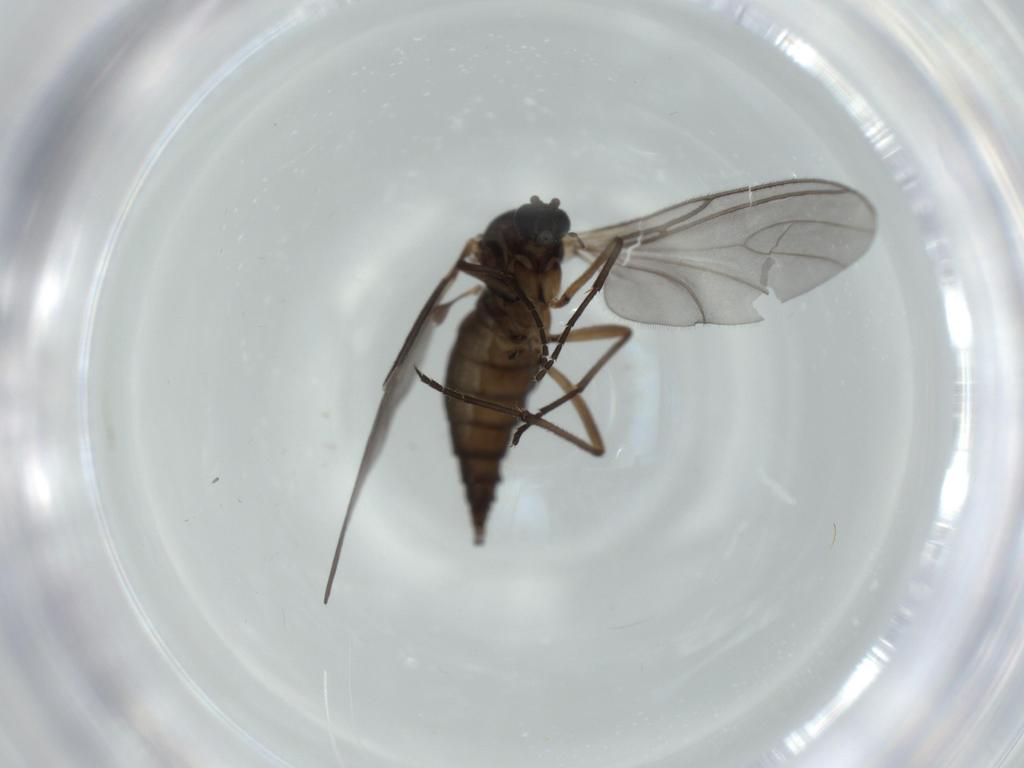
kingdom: Animalia
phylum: Arthropoda
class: Insecta
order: Diptera
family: Sciaridae
